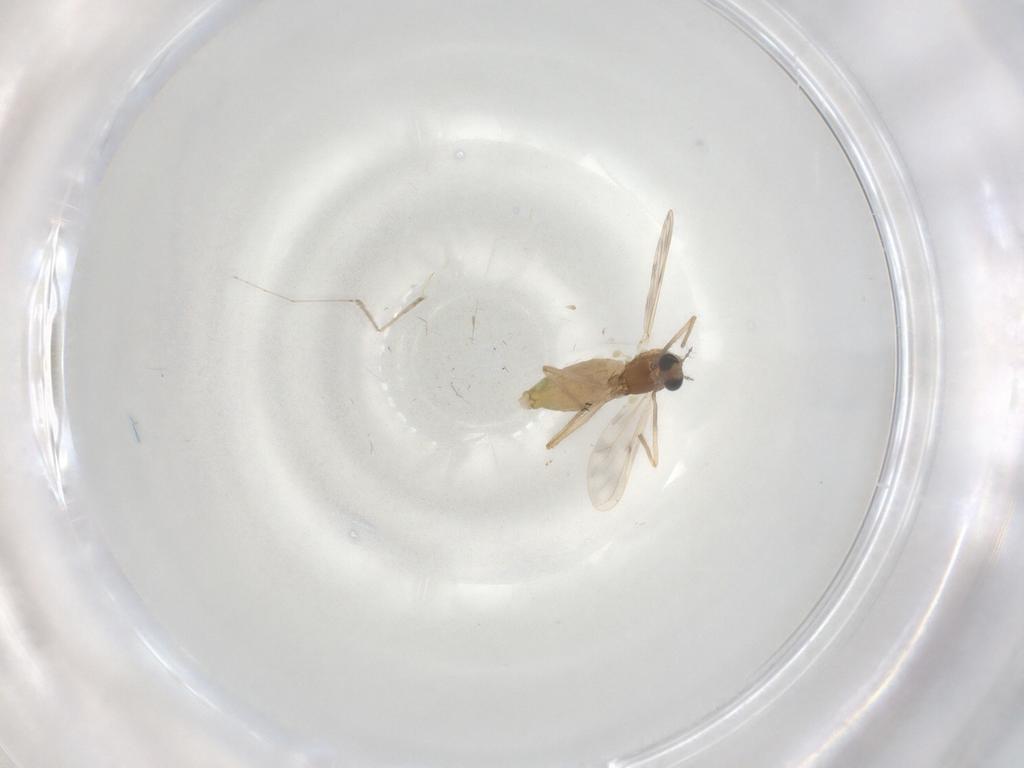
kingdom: Animalia
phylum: Arthropoda
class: Insecta
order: Diptera
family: Chironomidae
